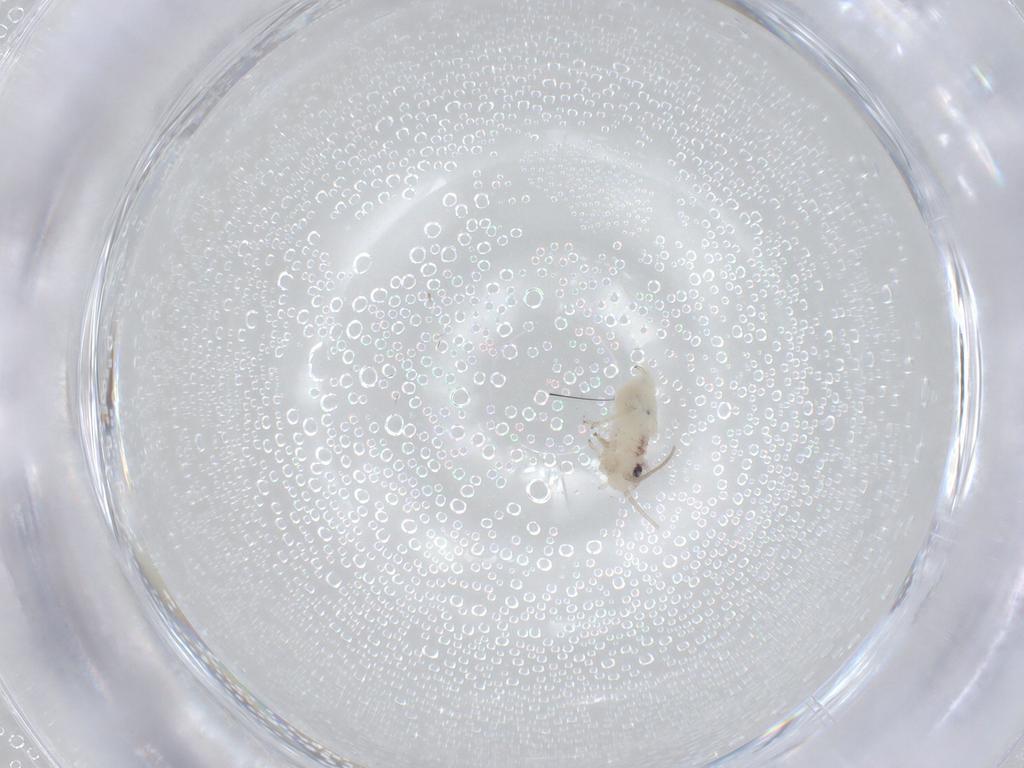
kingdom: Animalia
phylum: Arthropoda
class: Insecta
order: Psocodea
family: Caeciliusidae
